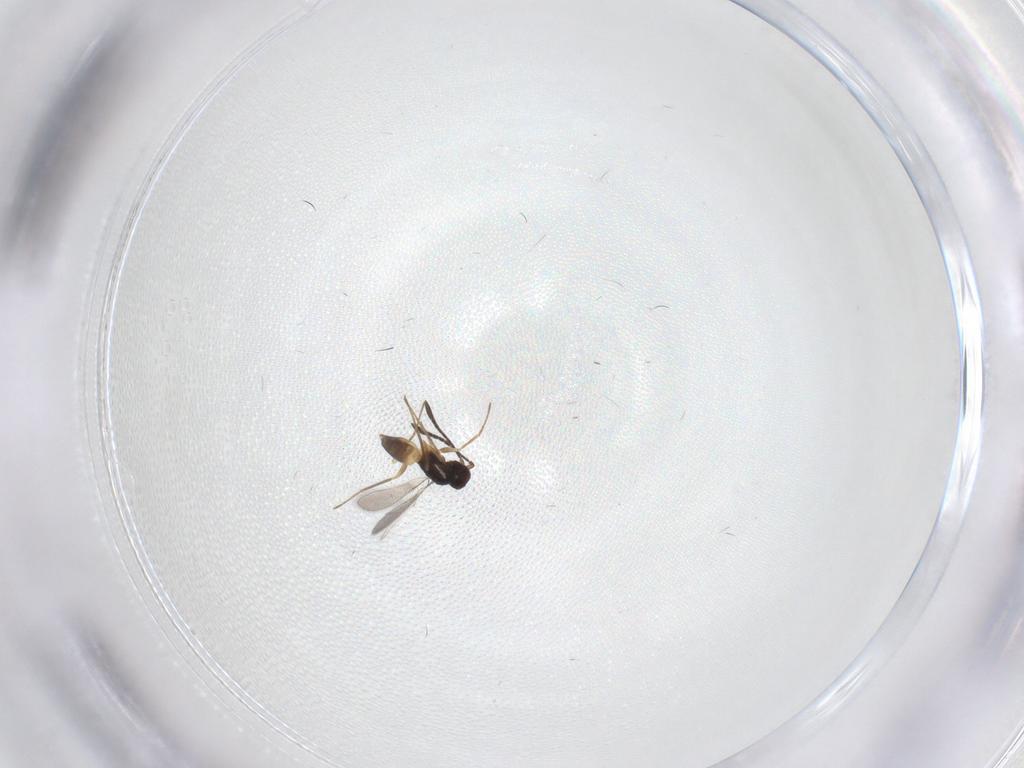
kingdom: Animalia
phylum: Arthropoda
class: Insecta
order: Hymenoptera
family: Mymaridae
